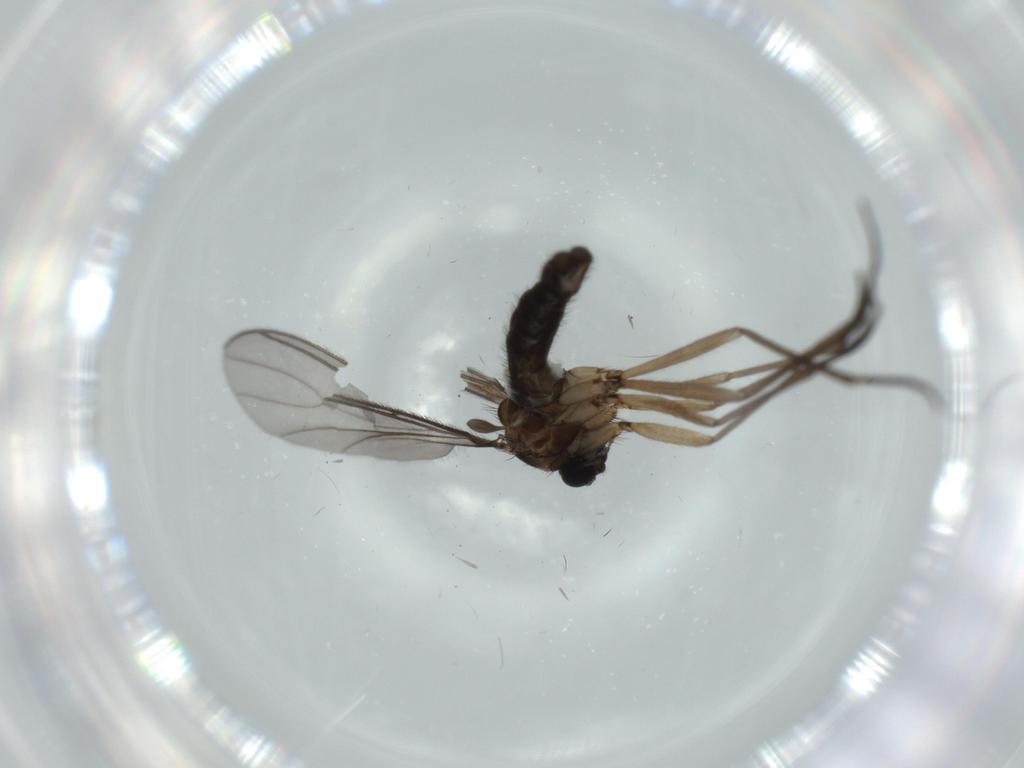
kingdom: Animalia
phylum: Arthropoda
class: Insecta
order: Diptera
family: Sciaridae
